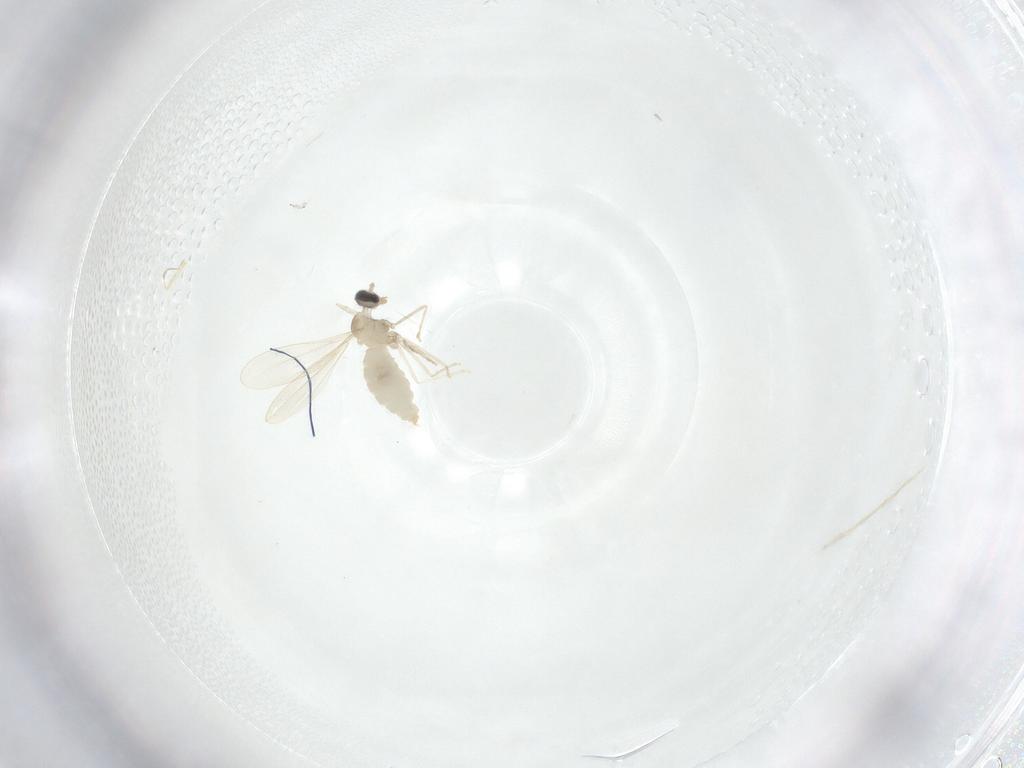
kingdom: Animalia
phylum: Arthropoda
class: Insecta
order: Diptera
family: Cecidomyiidae
